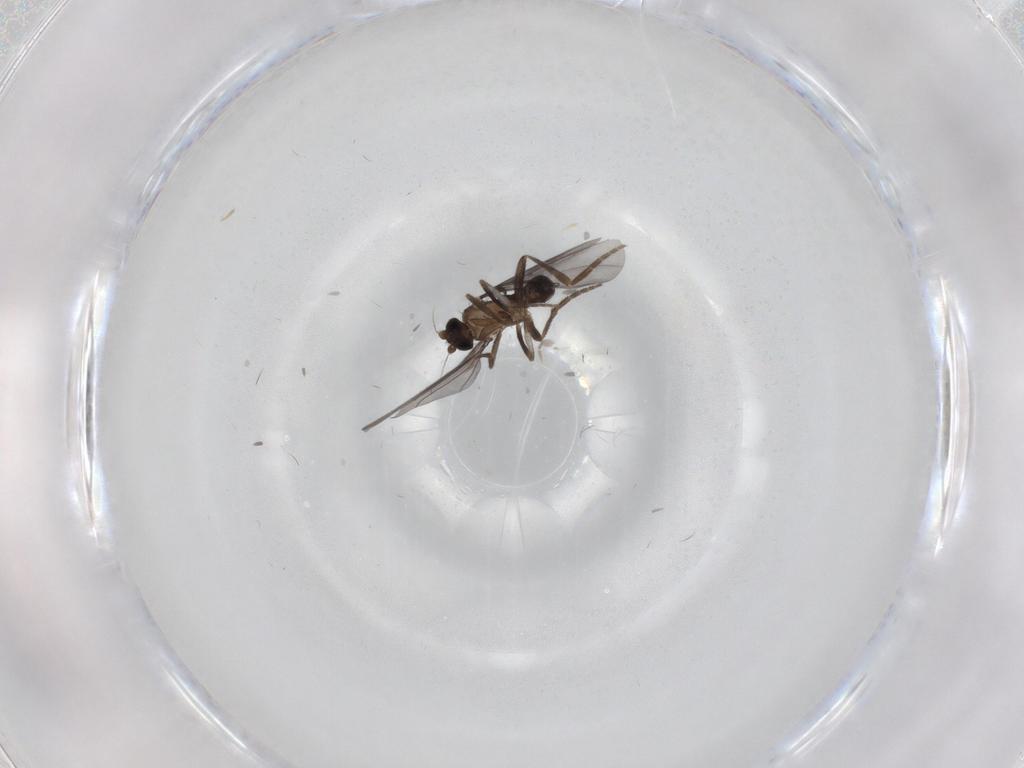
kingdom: Animalia
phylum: Arthropoda
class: Insecta
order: Diptera
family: Phoridae
